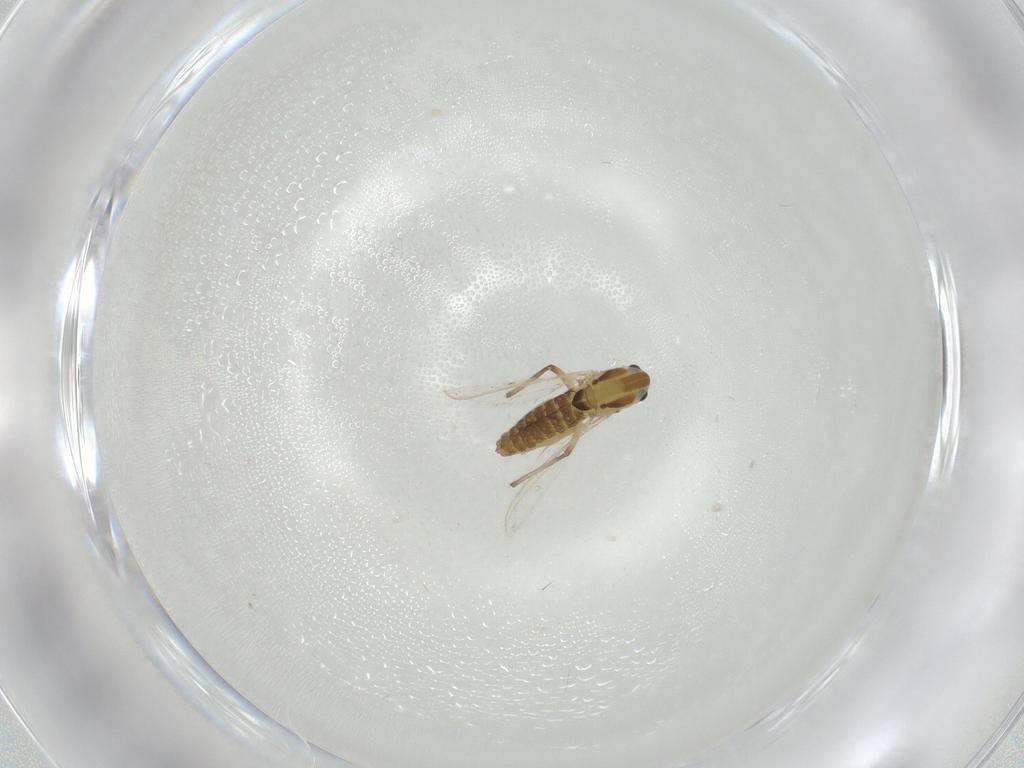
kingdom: Animalia
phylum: Arthropoda
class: Insecta
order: Diptera
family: Chironomidae
